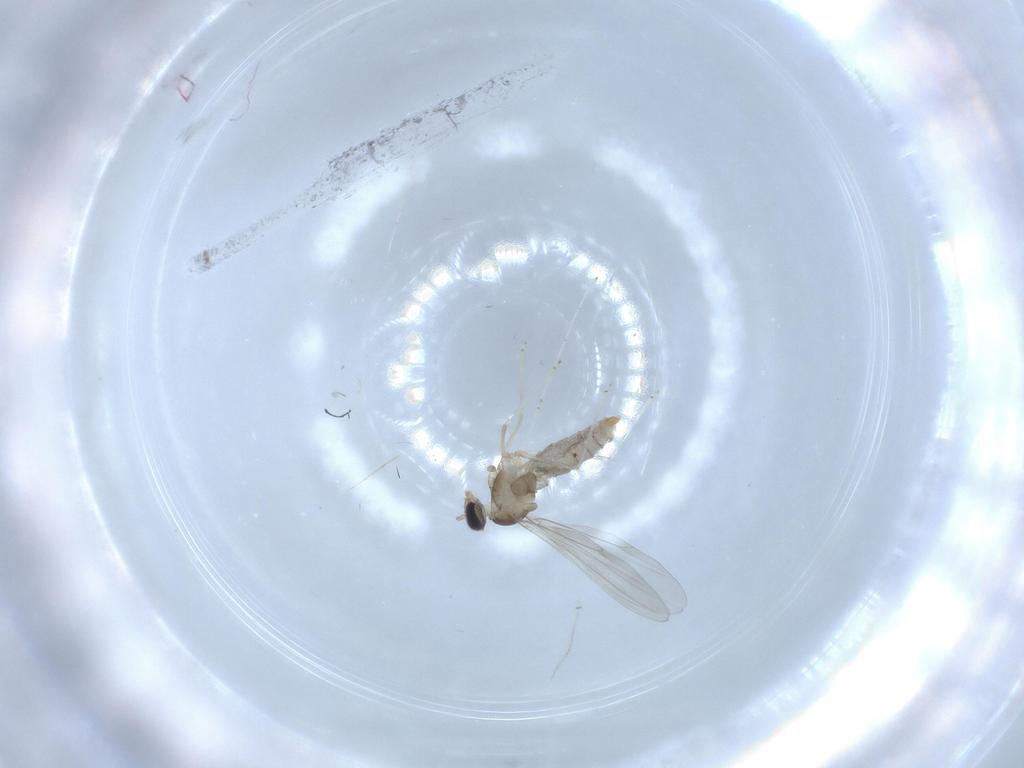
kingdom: Animalia
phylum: Arthropoda
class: Insecta
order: Diptera
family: Cecidomyiidae
